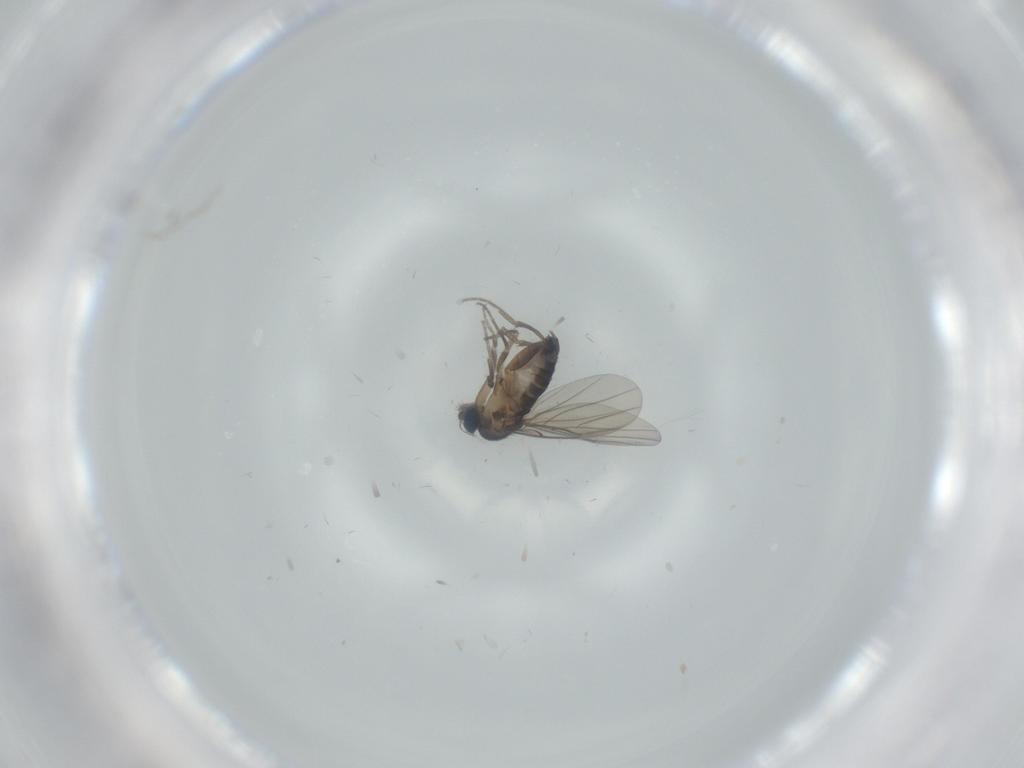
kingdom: Animalia
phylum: Arthropoda
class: Insecta
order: Diptera
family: Phoridae
